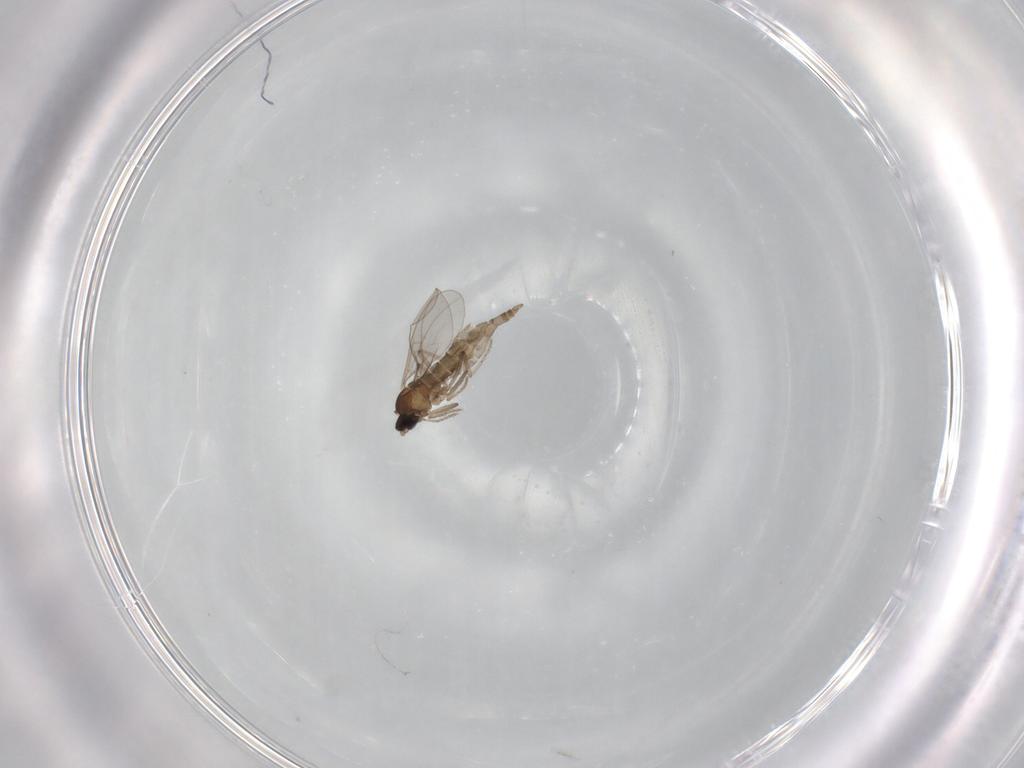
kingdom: Animalia
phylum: Arthropoda
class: Insecta
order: Diptera
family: Cecidomyiidae
